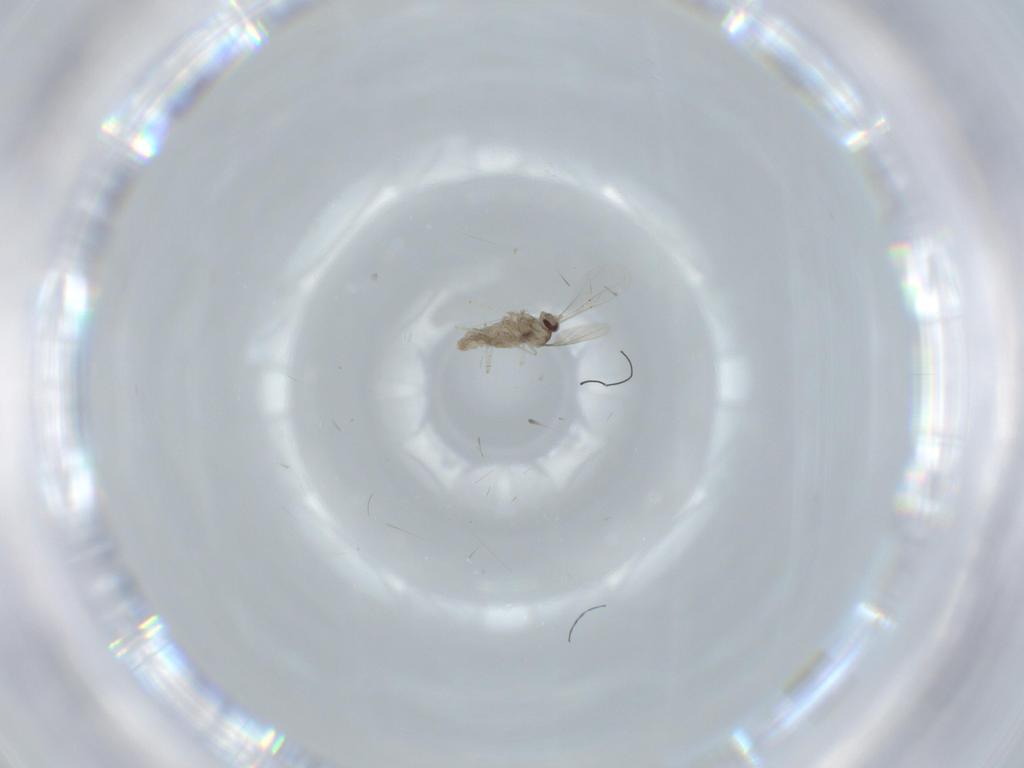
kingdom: Animalia
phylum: Arthropoda
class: Insecta
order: Diptera
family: Cecidomyiidae
